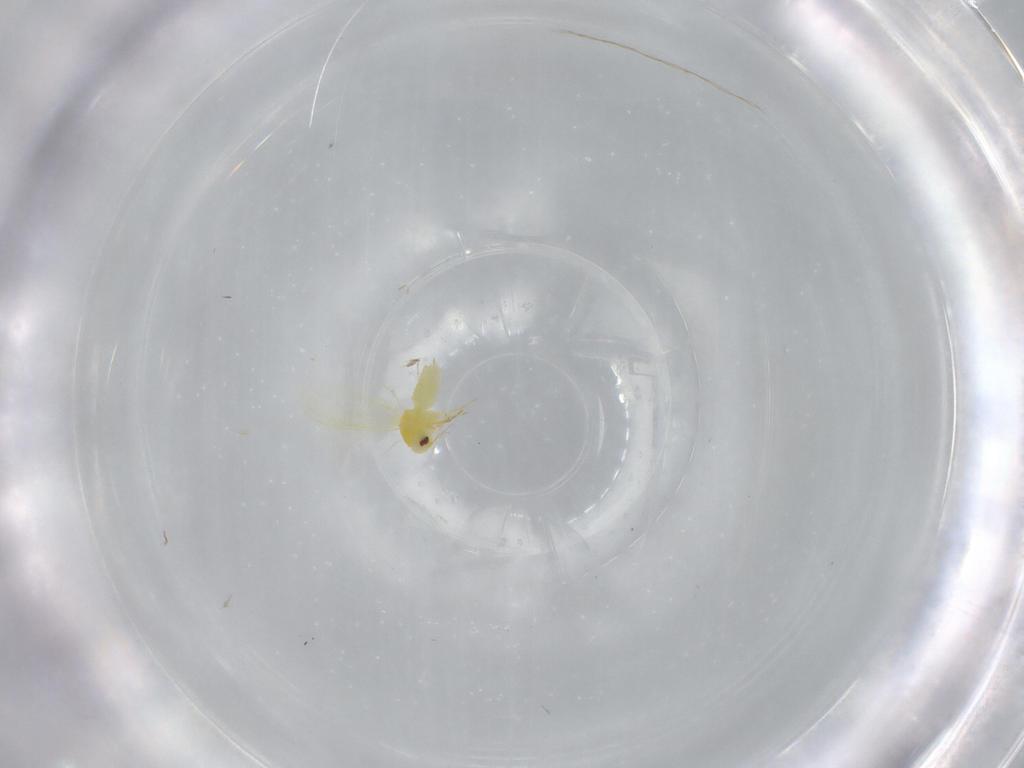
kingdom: Animalia
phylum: Arthropoda
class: Insecta
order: Hemiptera
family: Aleyrodidae
